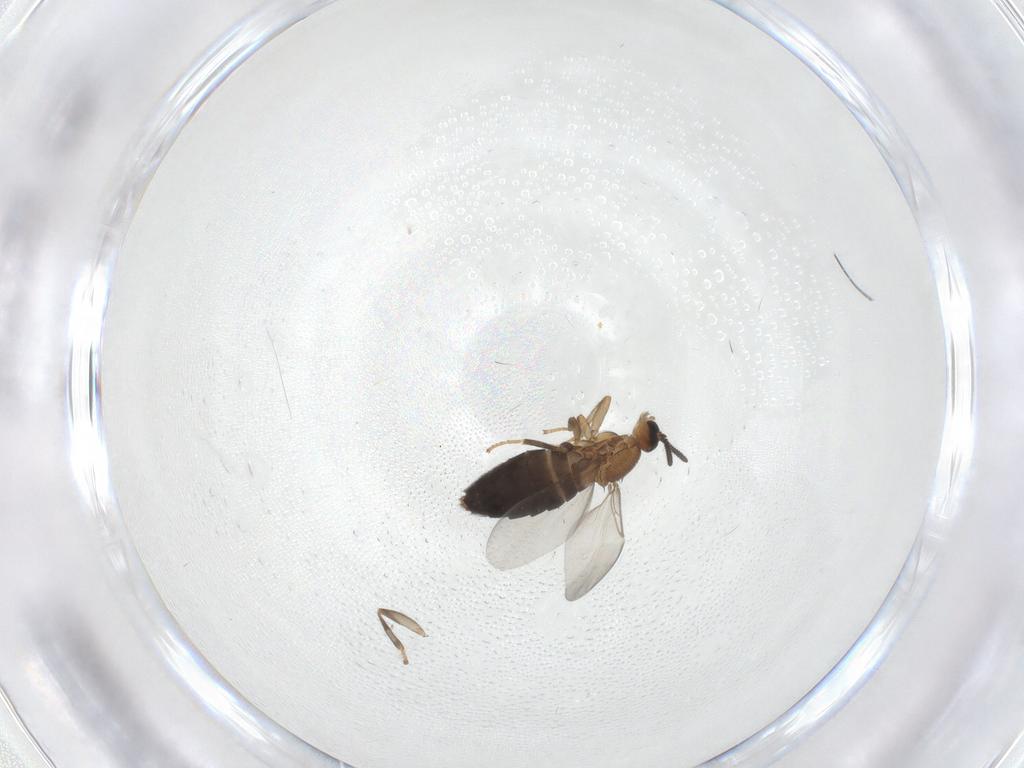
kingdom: Animalia
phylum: Arthropoda
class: Insecta
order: Diptera
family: Scatopsidae
